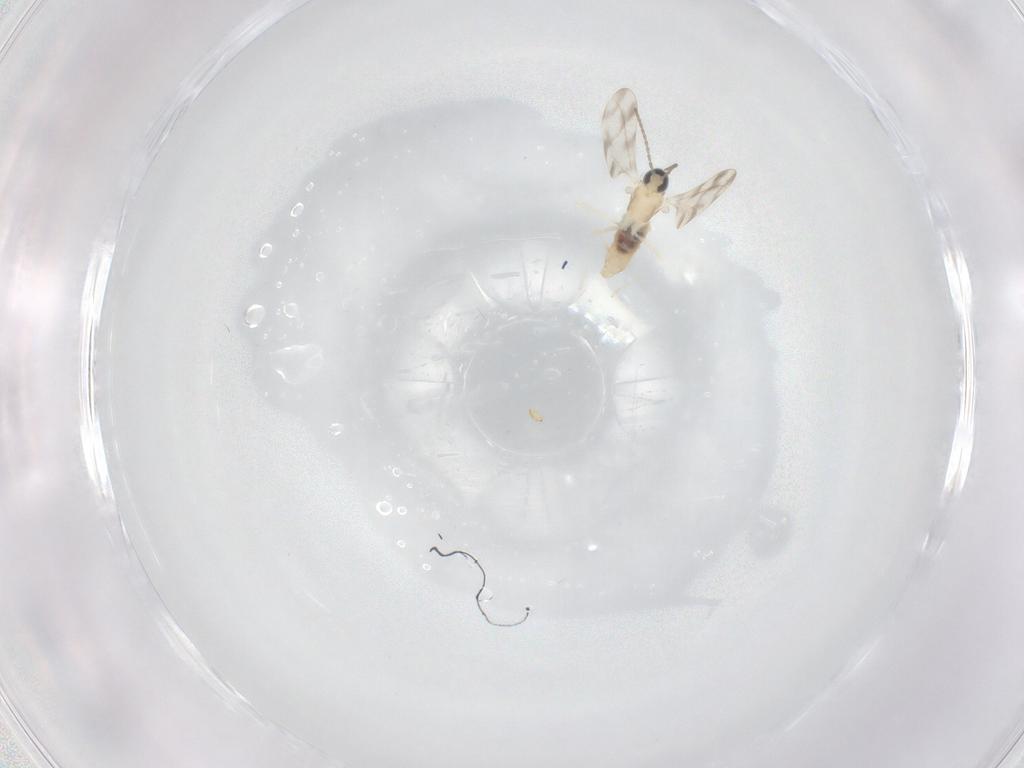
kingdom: Animalia
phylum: Arthropoda
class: Insecta
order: Diptera
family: Cecidomyiidae
